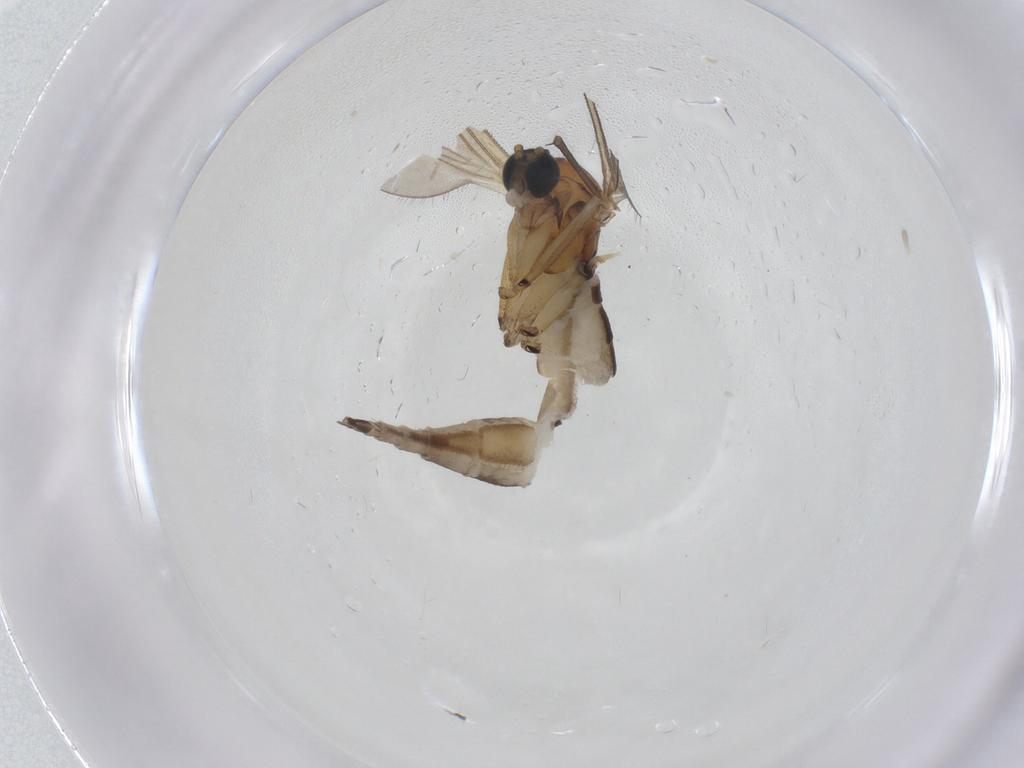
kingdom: Animalia
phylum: Arthropoda
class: Insecta
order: Diptera
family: Sciaridae
